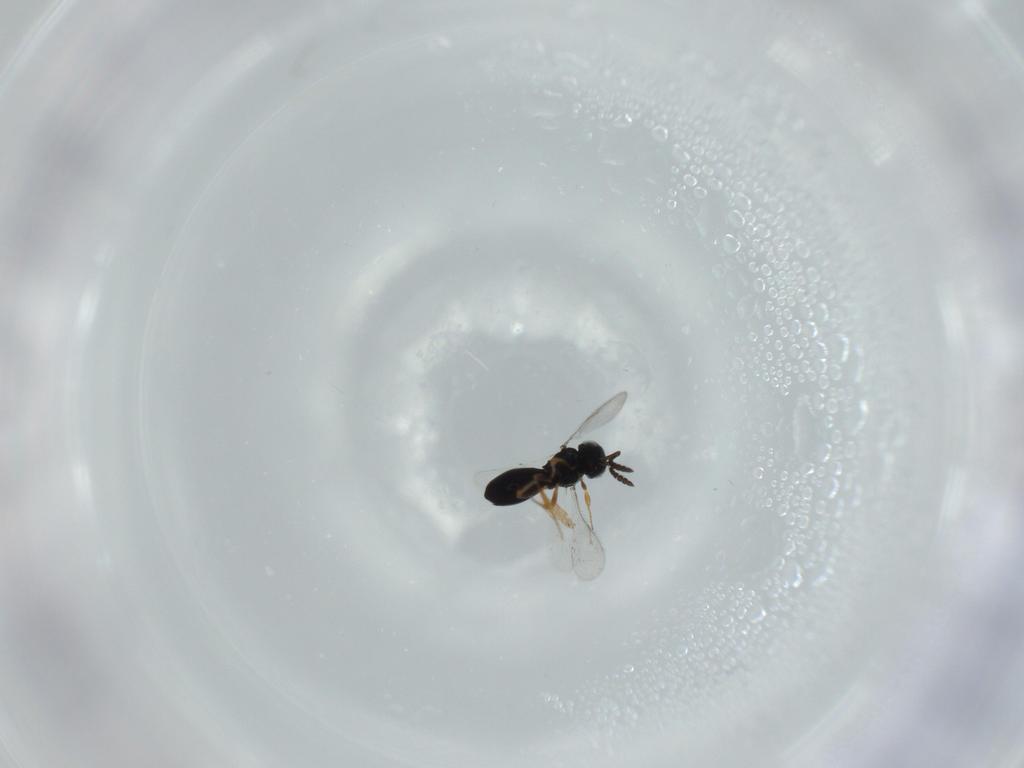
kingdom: Animalia
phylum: Arthropoda
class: Insecta
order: Hymenoptera
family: Scelionidae
